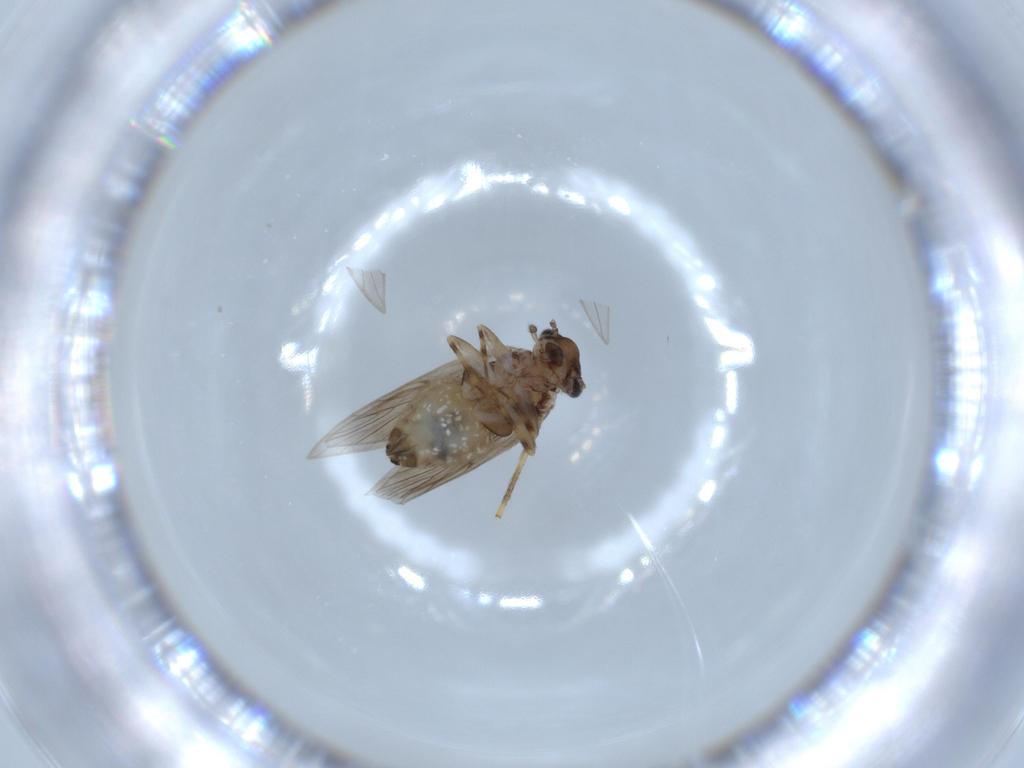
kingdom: Animalia
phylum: Arthropoda
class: Insecta
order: Psocodea
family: Lepidopsocidae
